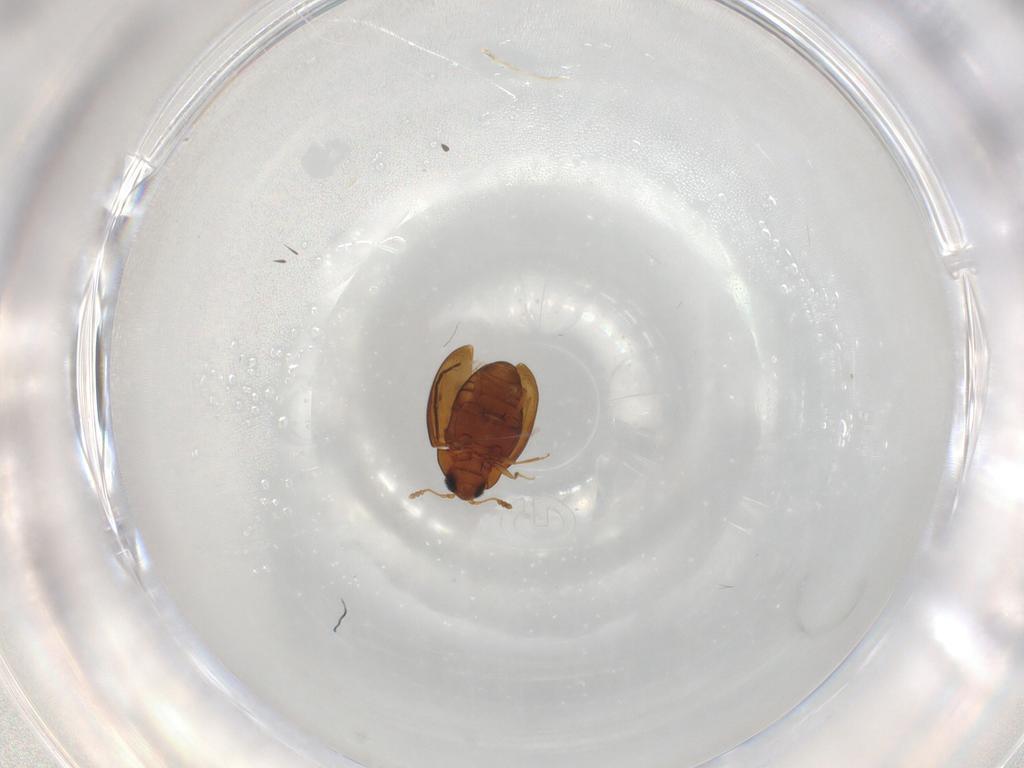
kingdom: Animalia
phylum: Arthropoda
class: Insecta
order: Coleoptera
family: Cryptophagidae
